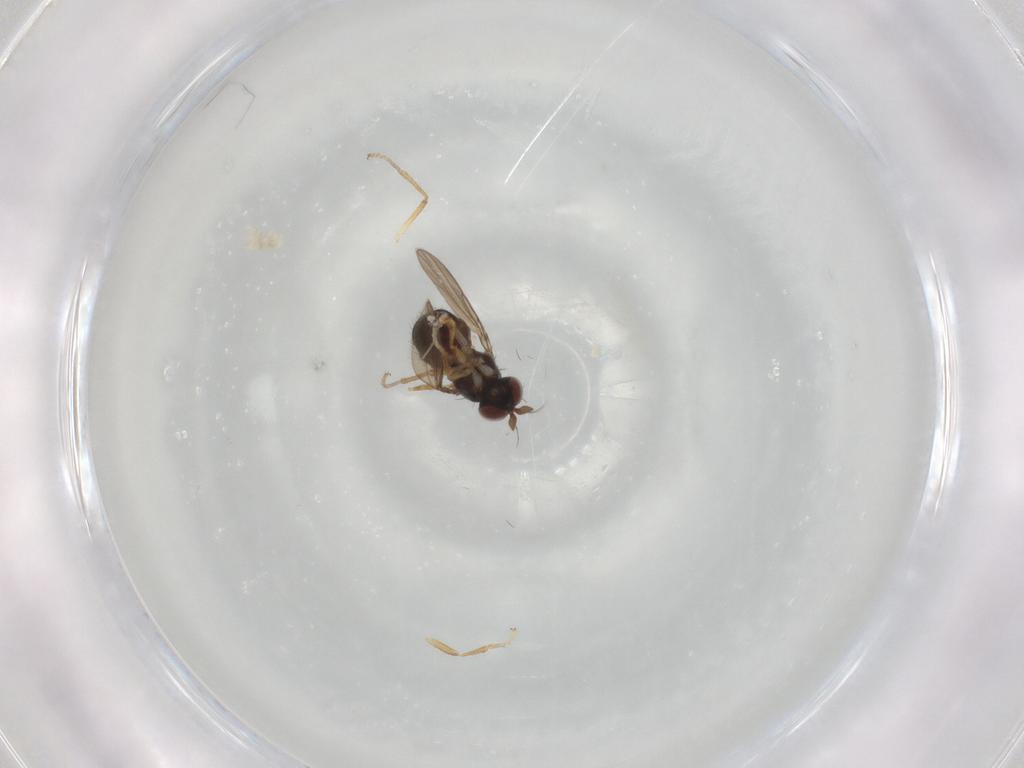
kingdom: Animalia
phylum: Arthropoda
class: Insecta
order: Diptera
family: Ephydridae
